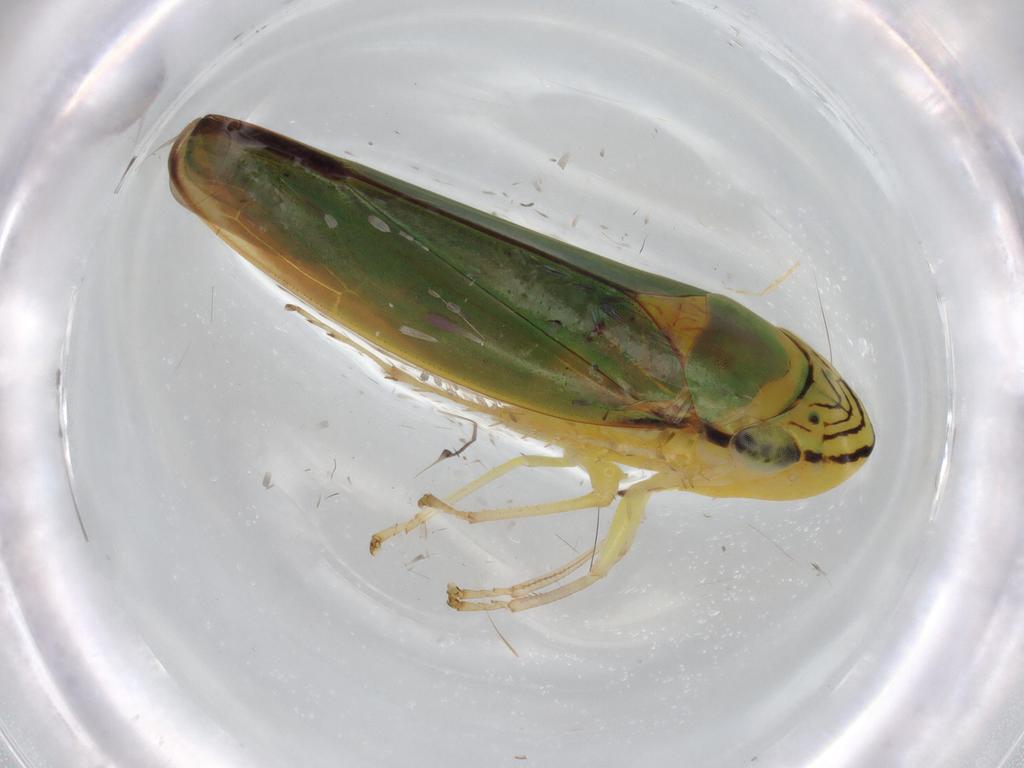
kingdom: Animalia
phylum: Arthropoda
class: Insecta
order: Hemiptera
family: Cicadellidae
